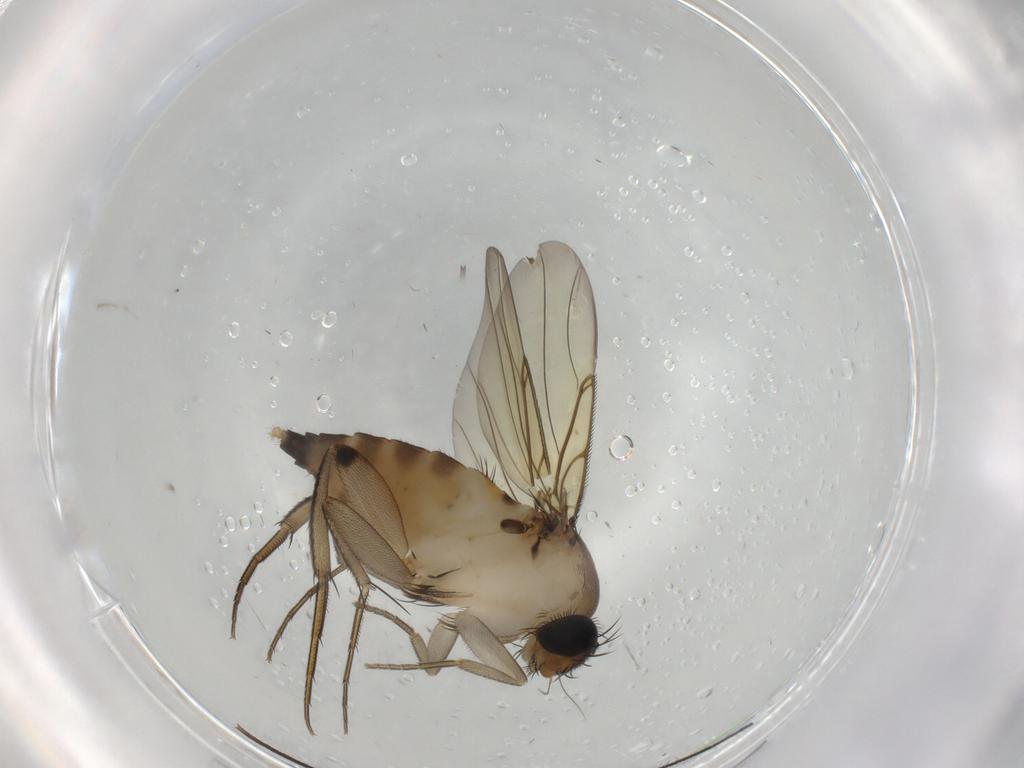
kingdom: Animalia
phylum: Arthropoda
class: Insecta
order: Diptera
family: Phoridae
